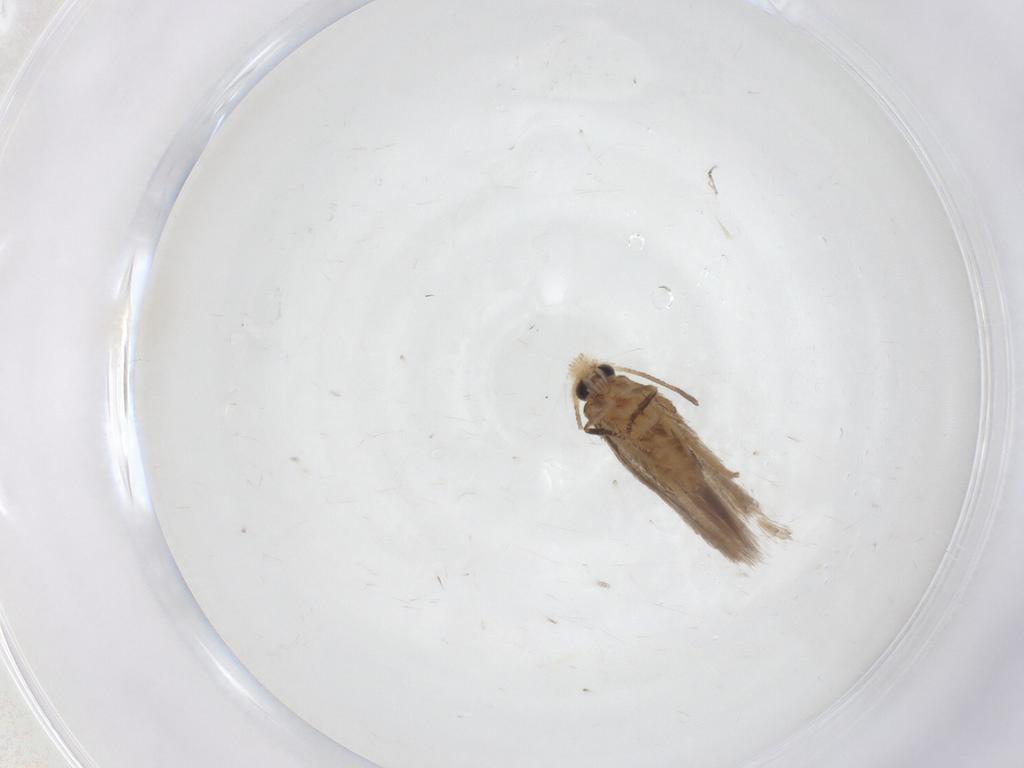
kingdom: Animalia
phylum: Arthropoda
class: Insecta
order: Lepidoptera
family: Nepticulidae
